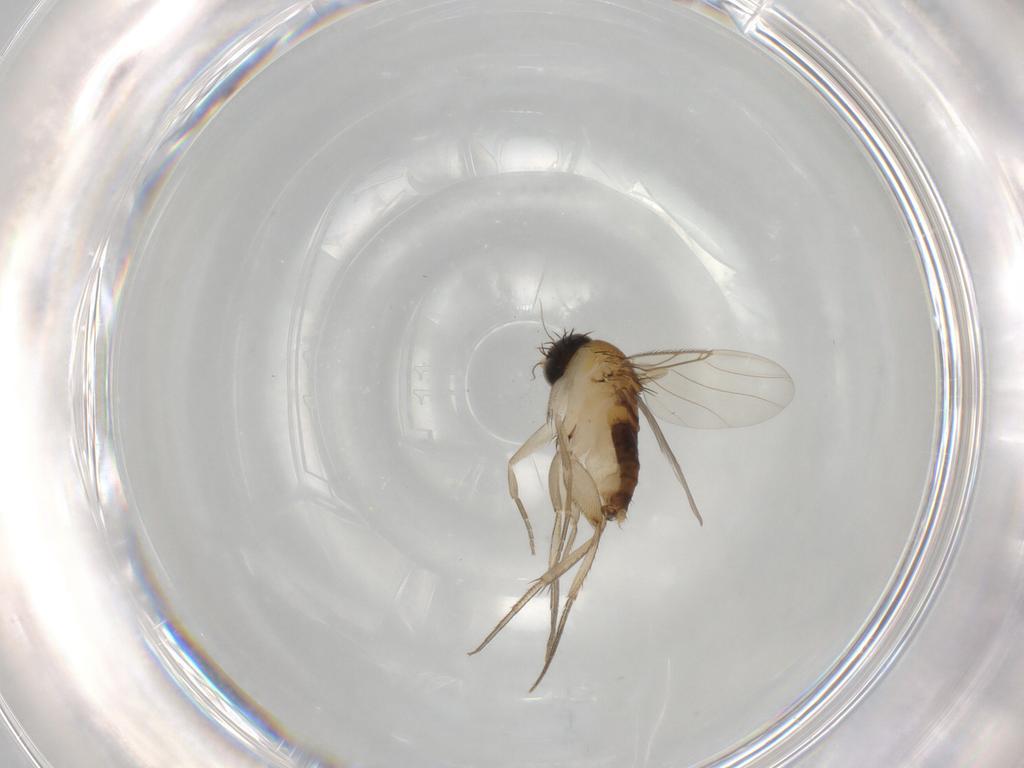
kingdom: Animalia
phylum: Arthropoda
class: Insecta
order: Diptera
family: Phoridae
